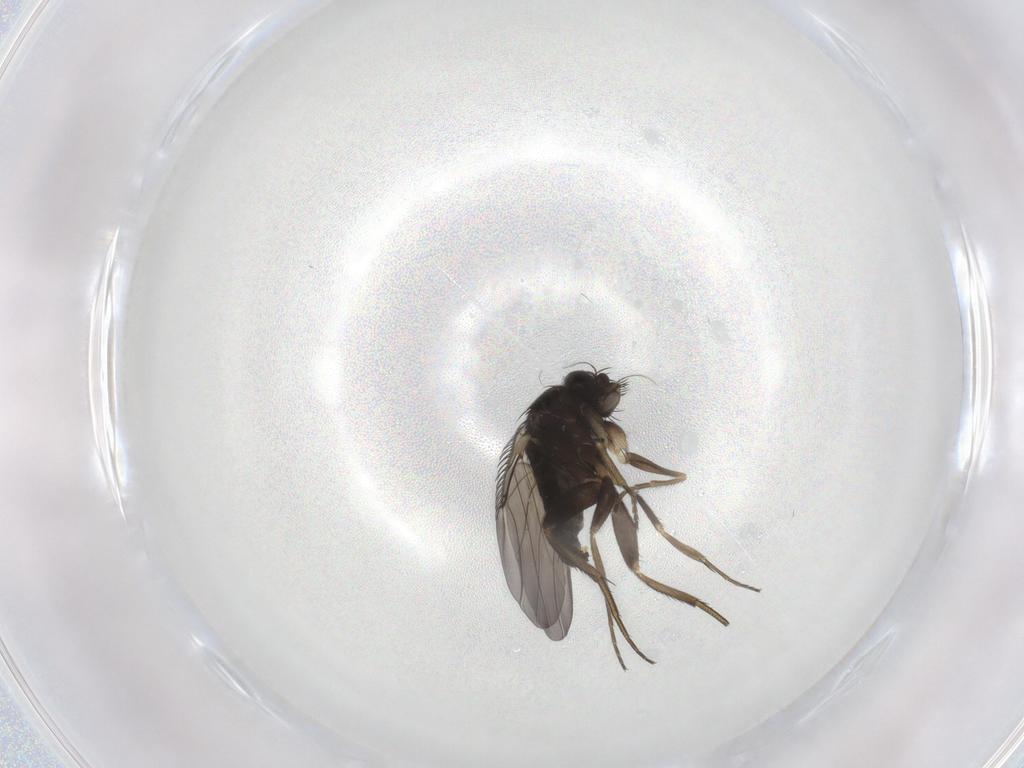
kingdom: Animalia
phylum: Arthropoda
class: Insecta
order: Diptera
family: Phoridae
